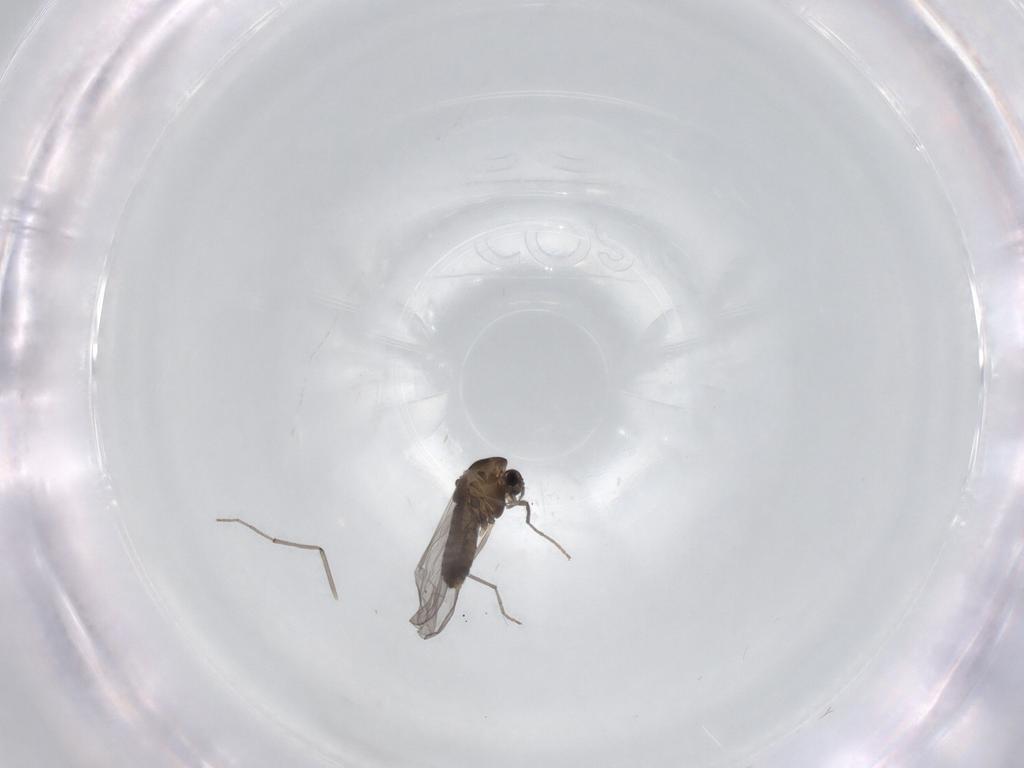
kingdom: Animalia
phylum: Arthropoda
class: Insecta
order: Diptera
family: Chironomidae
